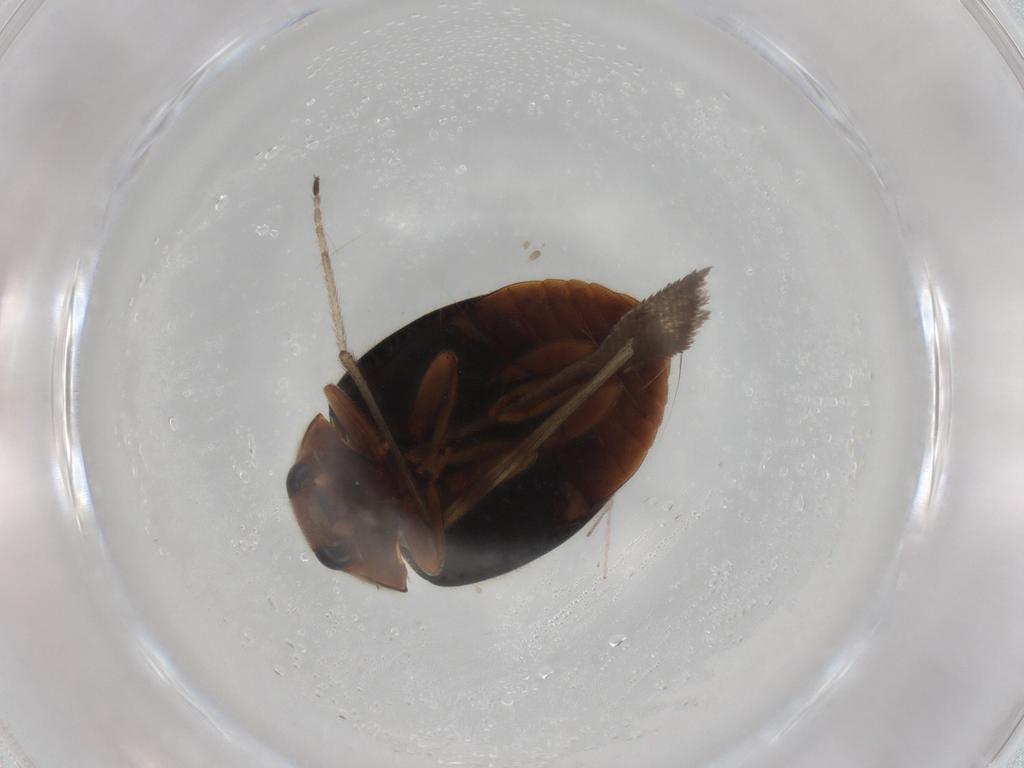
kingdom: Animalia
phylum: Arthropoda
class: Insecta
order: Coleoptera
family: Coccinellidae
